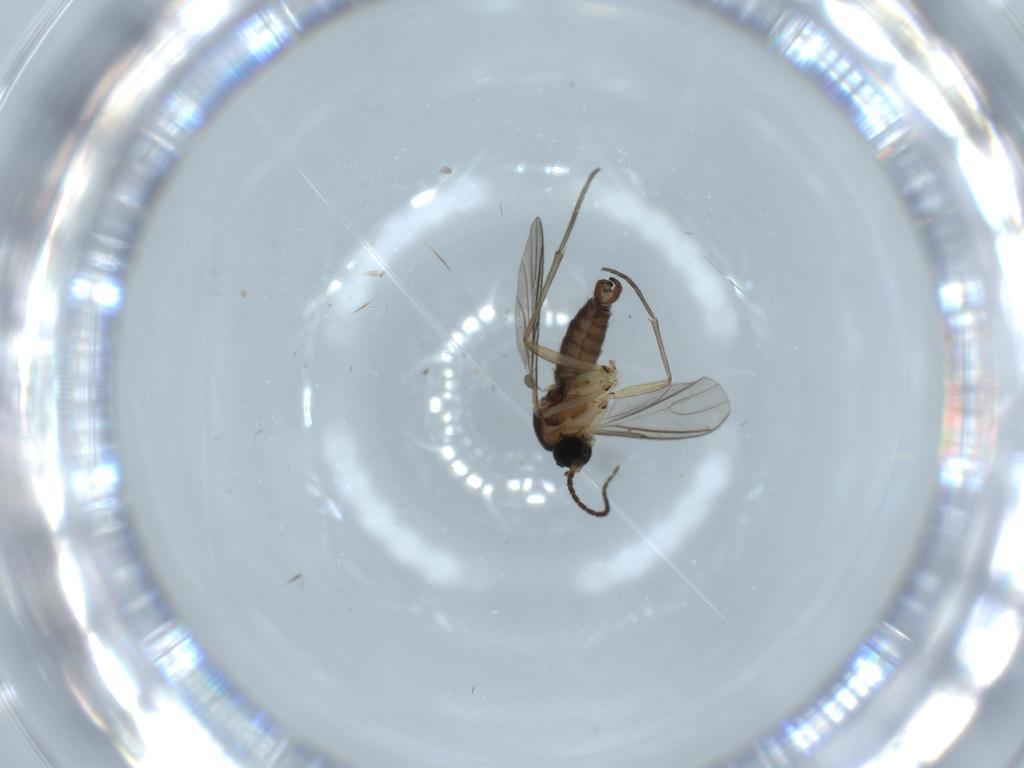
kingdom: Animalia
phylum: Arthropoda
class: Insecta
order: Diptera
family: Sciaridae
